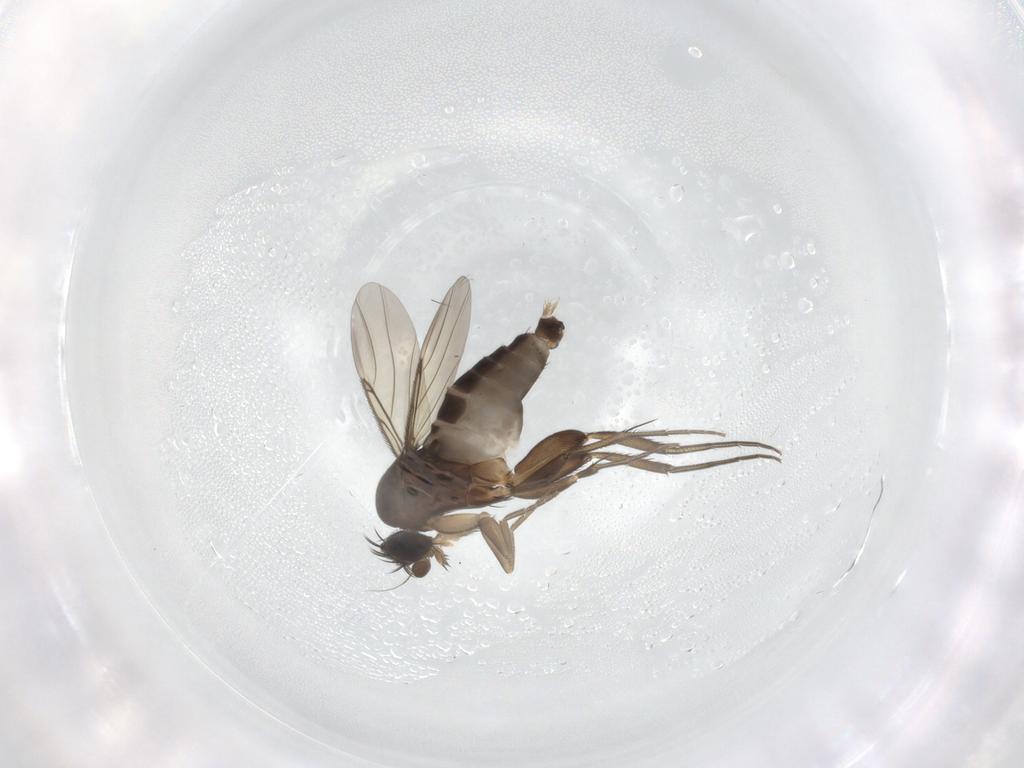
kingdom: Animalia
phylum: Arthropoda
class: Insecta
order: Diptera
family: Phoridae
